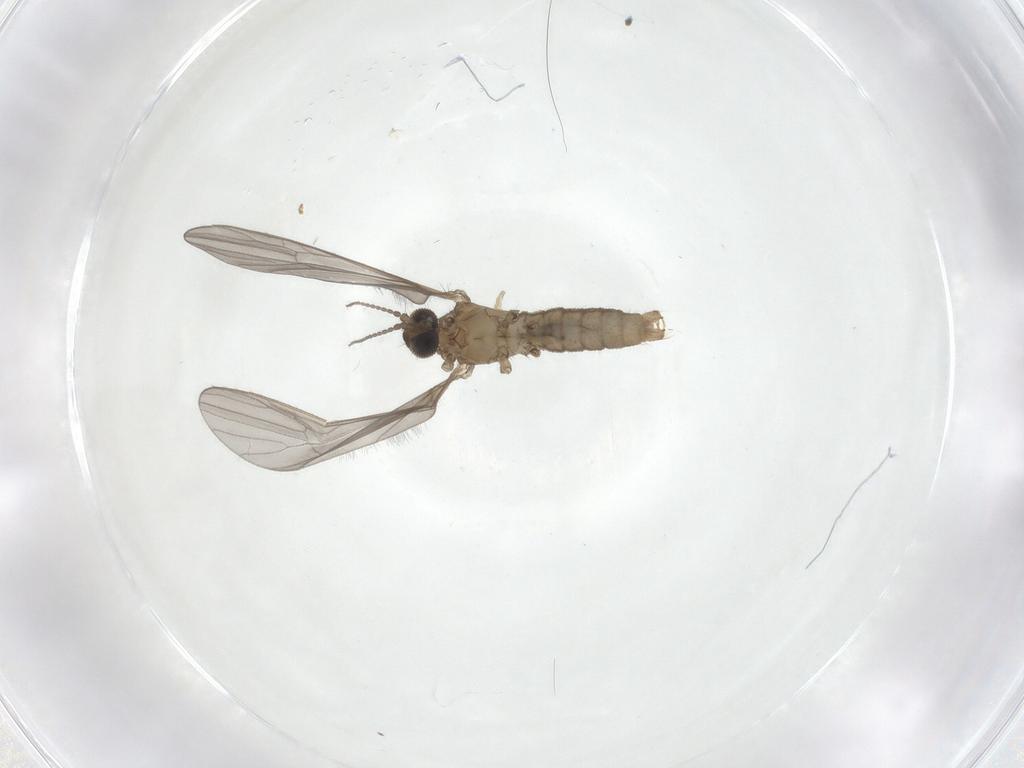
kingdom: Animalia
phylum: Arthropoda
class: Insecta
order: Diptera
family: Limoniidae
